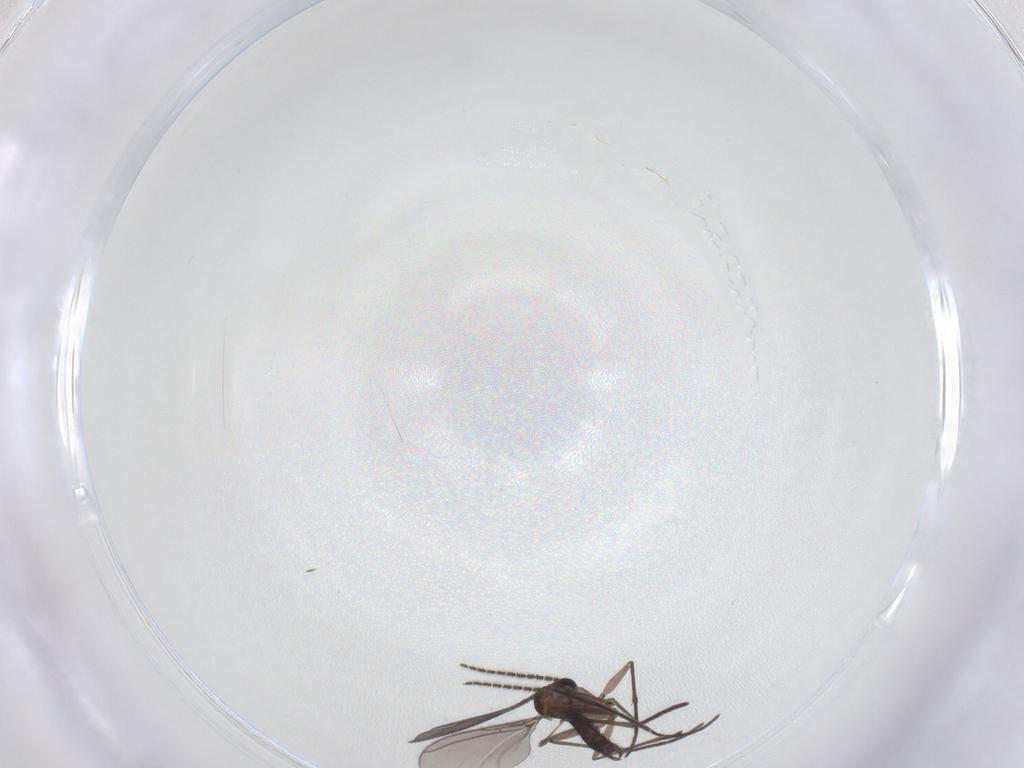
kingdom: Animalia
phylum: Arthropoda
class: Insecta
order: Diptera
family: Sciaridae
